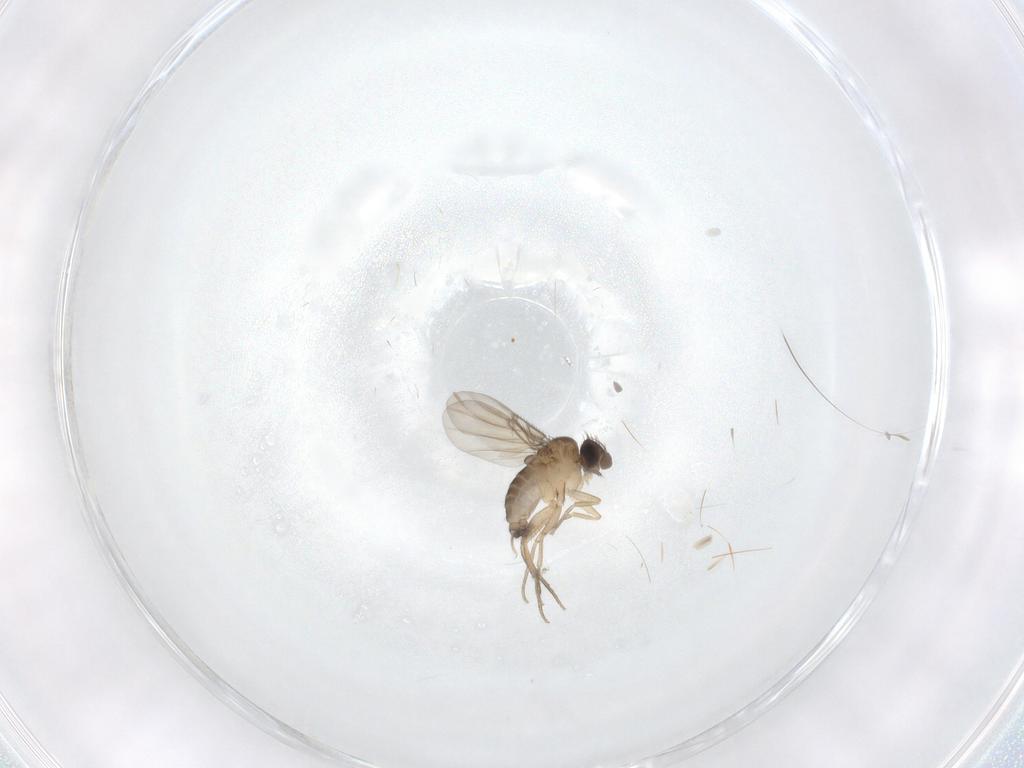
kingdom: Animalia
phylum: Arthropoda
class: Insecta
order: Diptera
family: Phoridae
